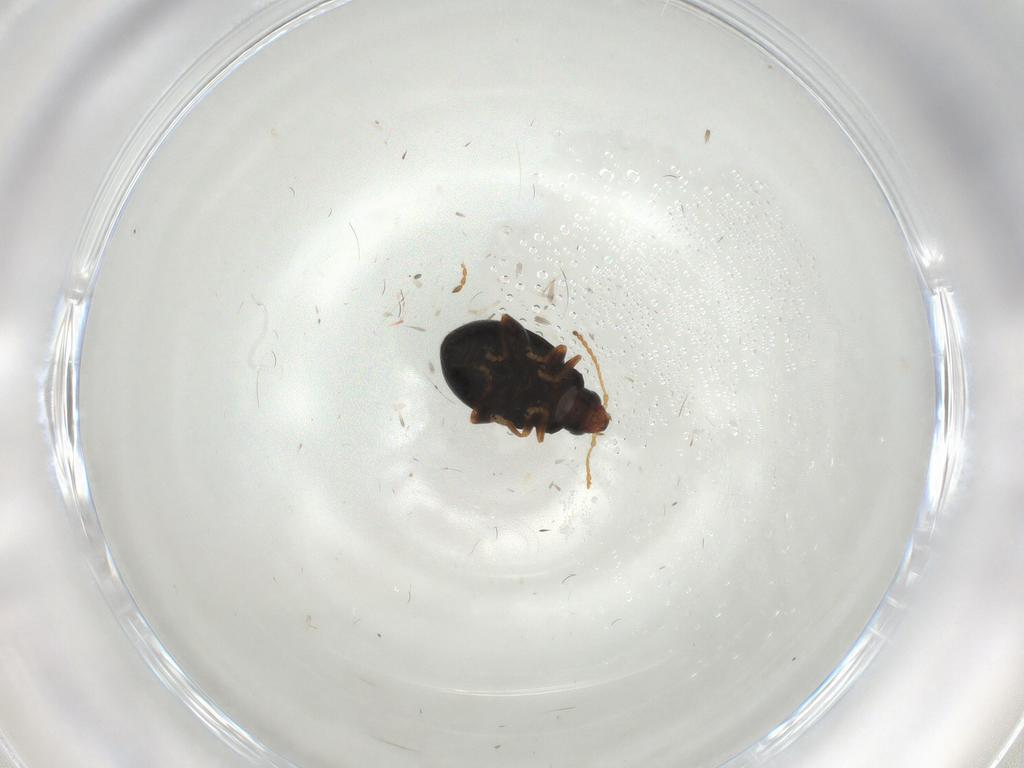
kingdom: Animalia
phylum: Arthropoda
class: Insecta
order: Coleoptera
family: Chrysomelidae
